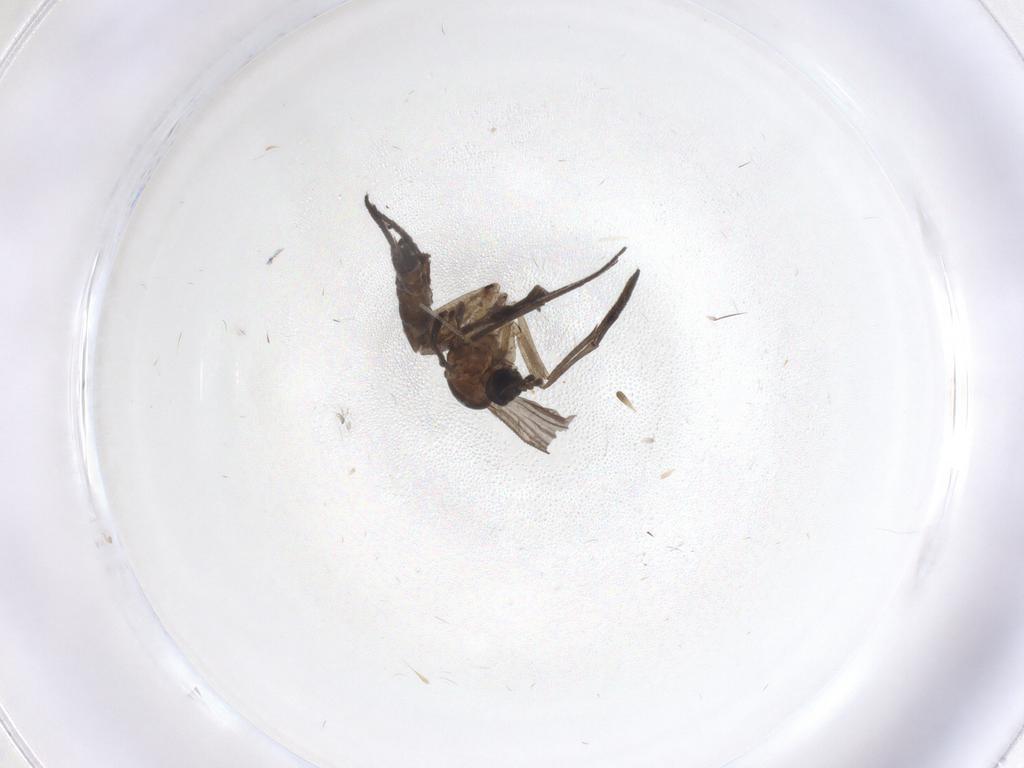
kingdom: Animalia
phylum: Arthropoda
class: Insecta
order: Diptera
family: Sciaridae
